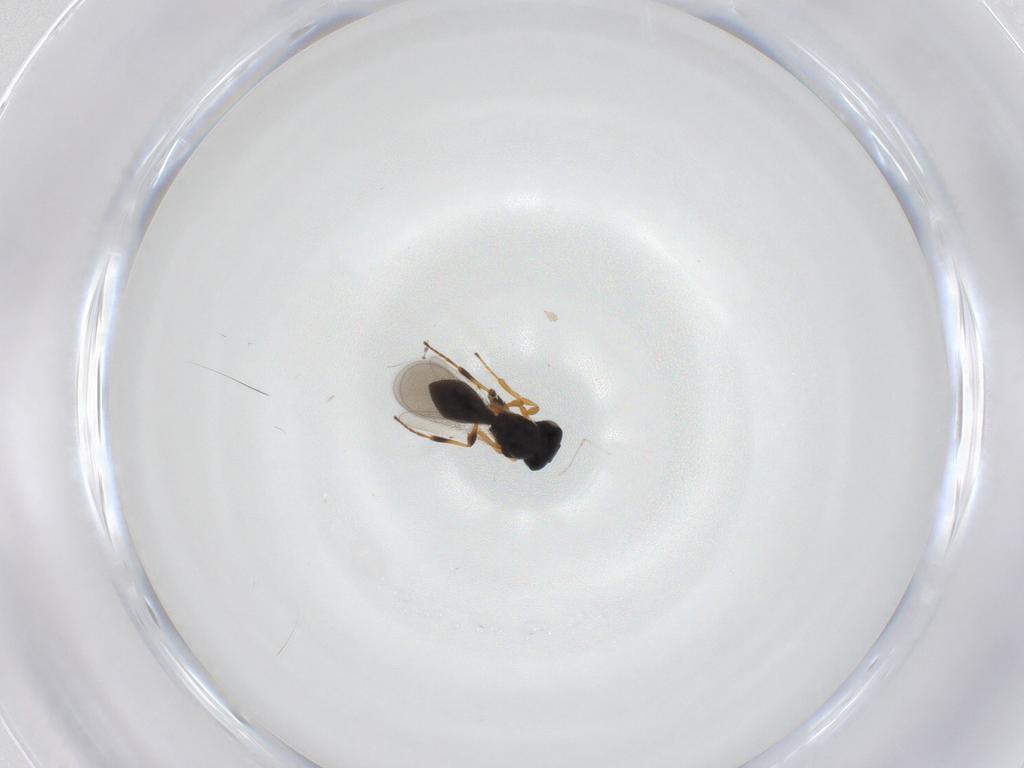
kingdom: Animalia
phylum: Arthropoda
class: Insecta
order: Hymenoptera
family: Platygastridae
